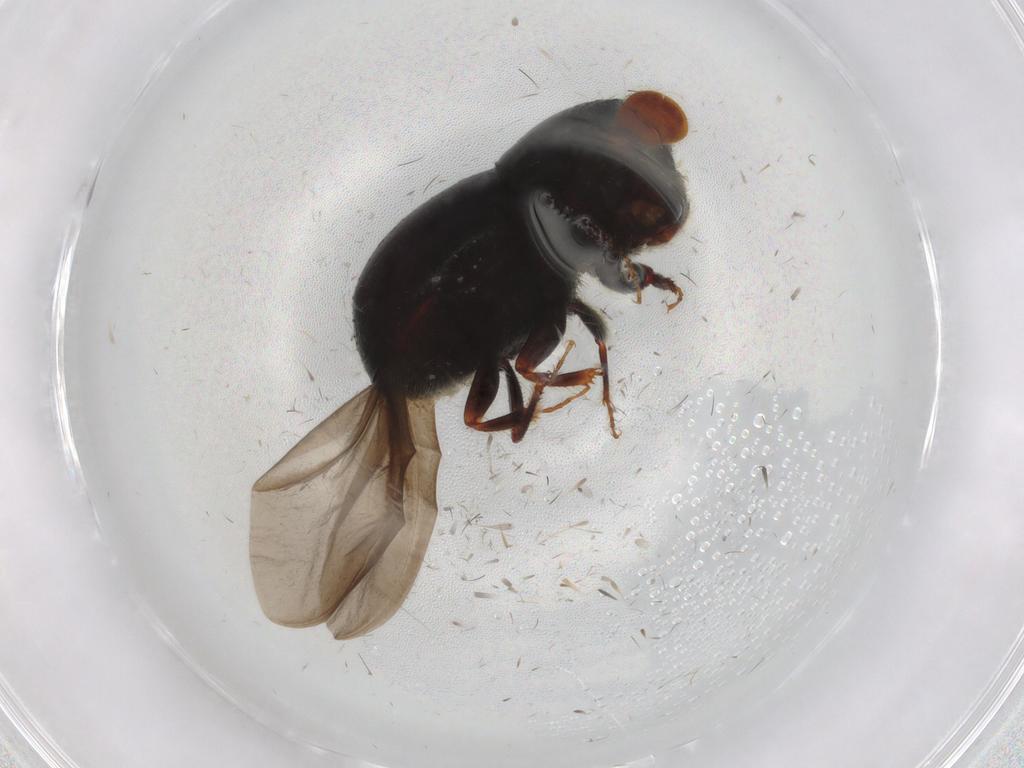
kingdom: Animalia
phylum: Arthropoda
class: Insecta
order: Coleoptera
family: Curculionidae
